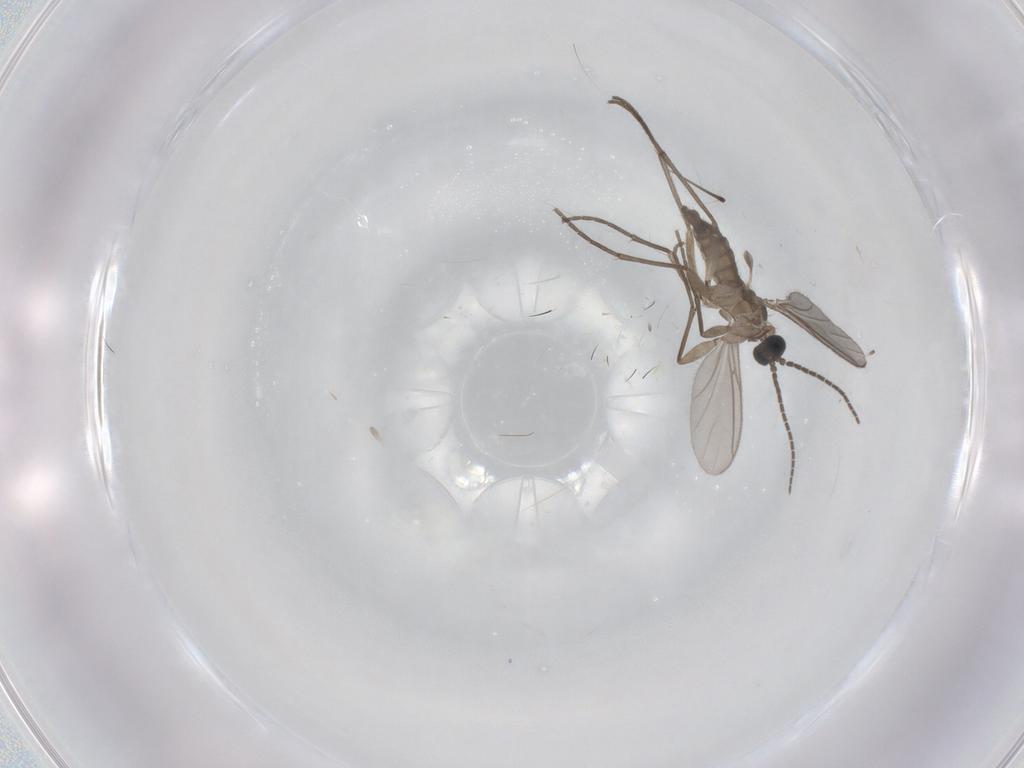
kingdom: Animalia
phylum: Arthropoda
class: Insecta
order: Diptera
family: Sciaridae
